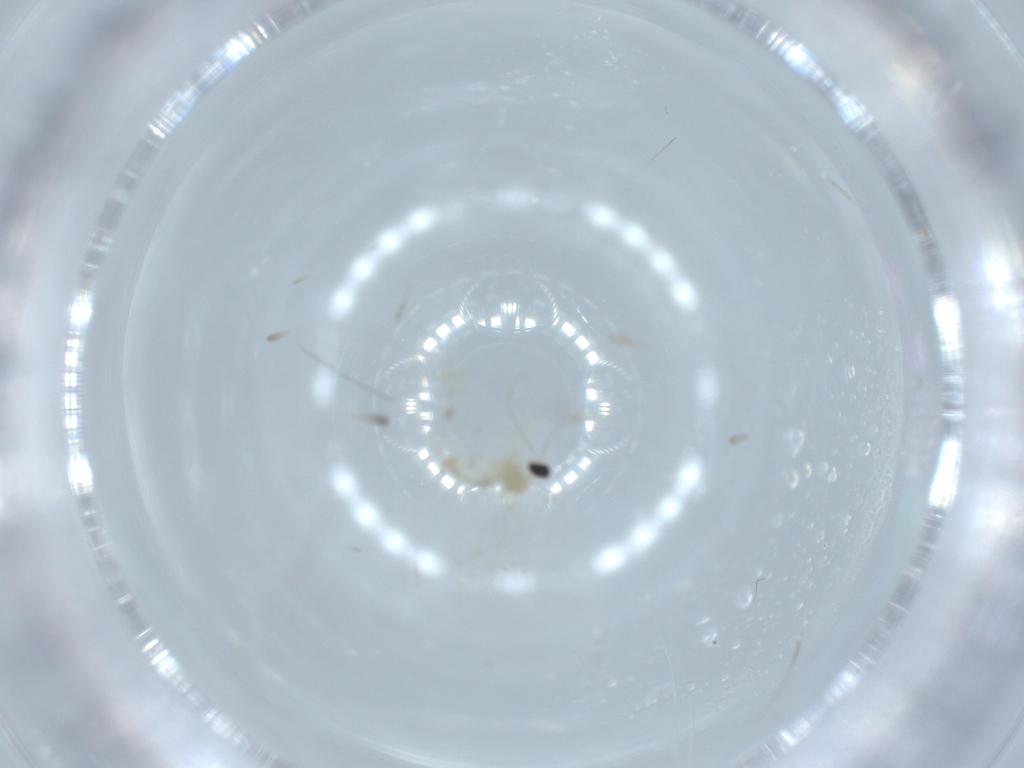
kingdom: Animalia
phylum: Arthropoda
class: Insecta
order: Diptera
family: Cecidomyiidae
